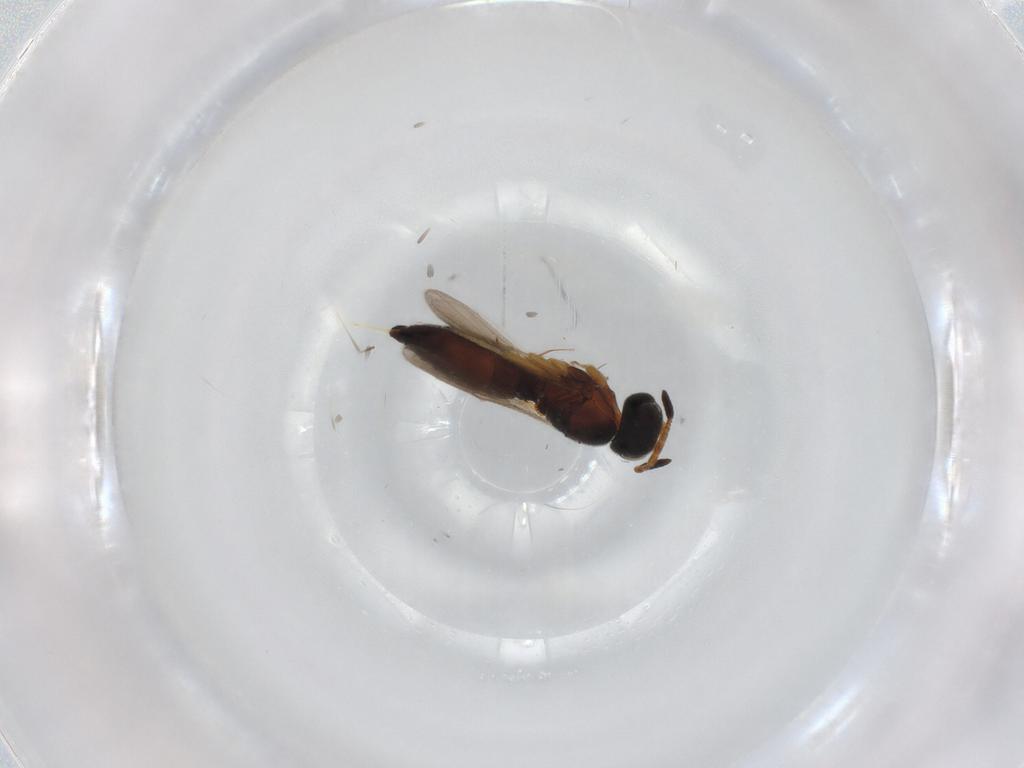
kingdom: Animalia
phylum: Arthropoda
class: Insecta
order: Hymenoptera
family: Scelionidae
